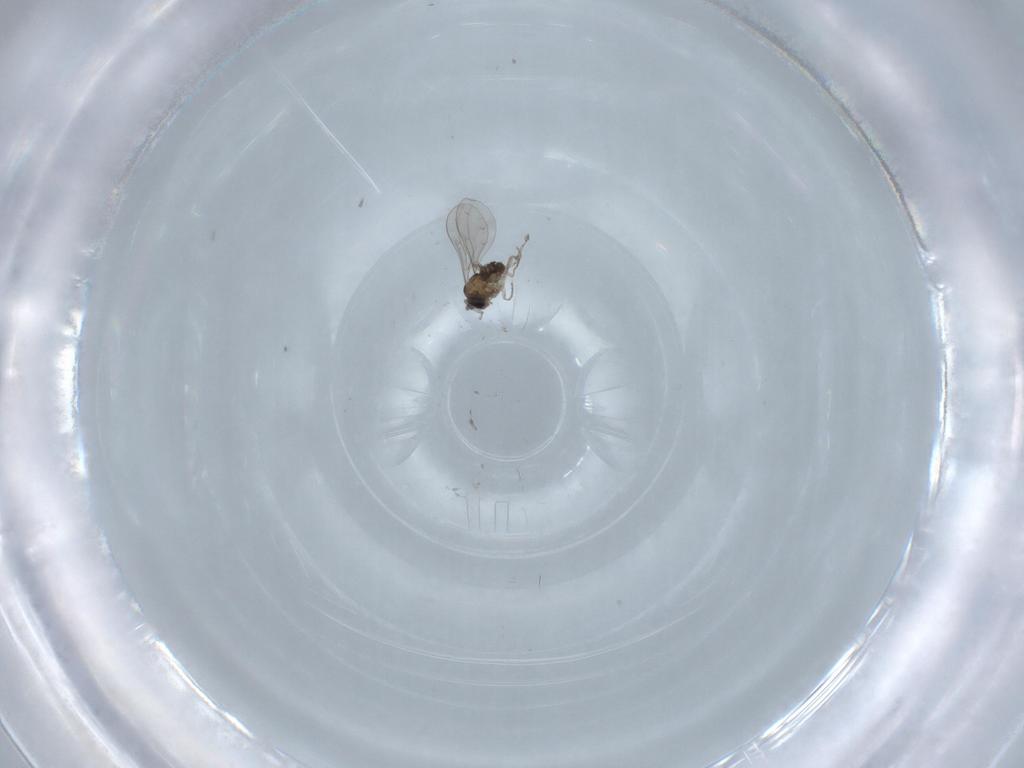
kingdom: Animalia
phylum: Arthropoda
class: Insecta
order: Diptera
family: Cecidomyiidae
